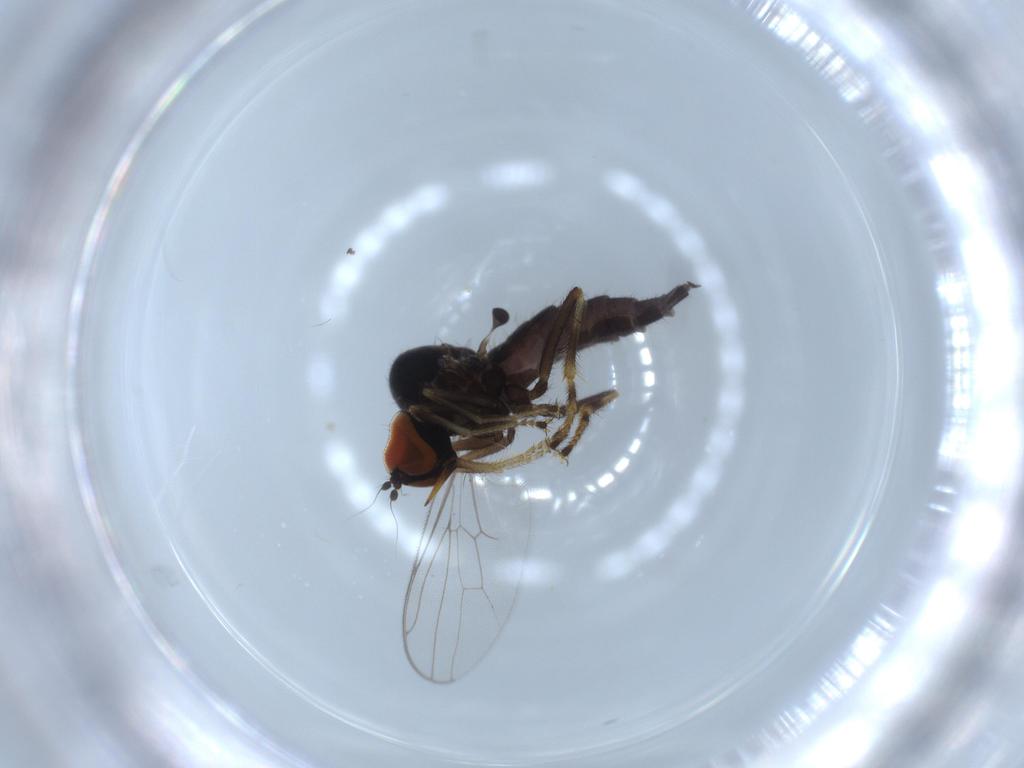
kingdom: Animalia
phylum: Arthropoda
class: Insecta
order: Diptera
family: Hybotidae
